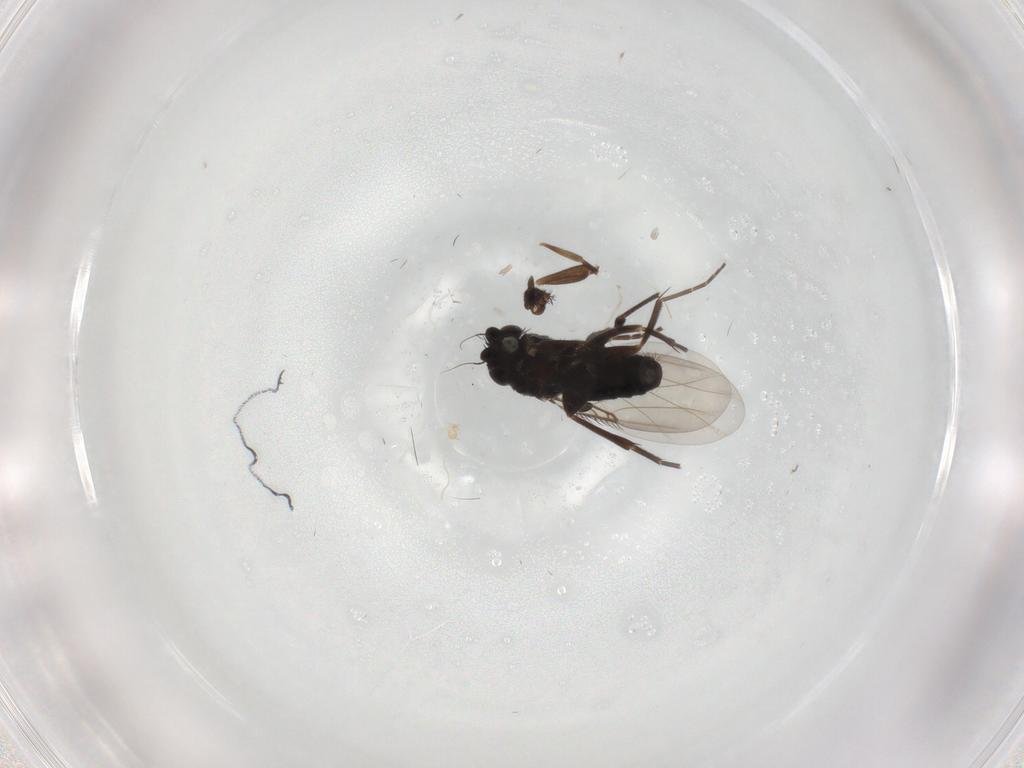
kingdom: Animalia
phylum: Arthropoda
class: Insecta
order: Diptera
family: Phoridae
